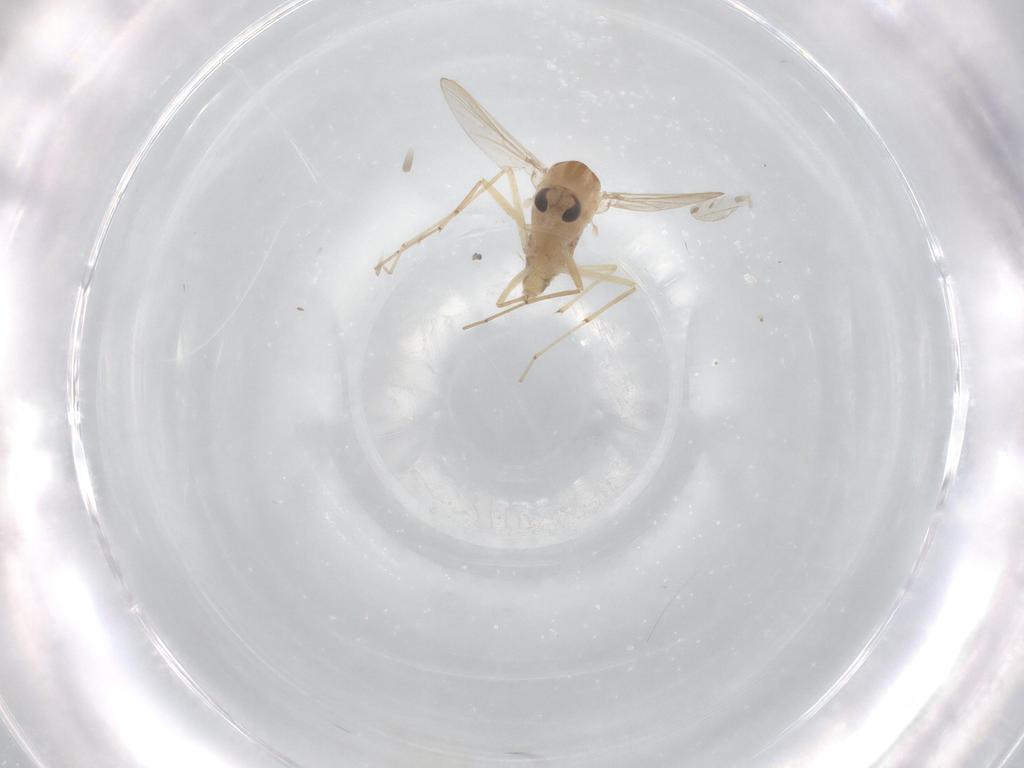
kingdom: Animalia
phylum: Arthropoda
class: Insecta
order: Diptera
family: Chironomidae
